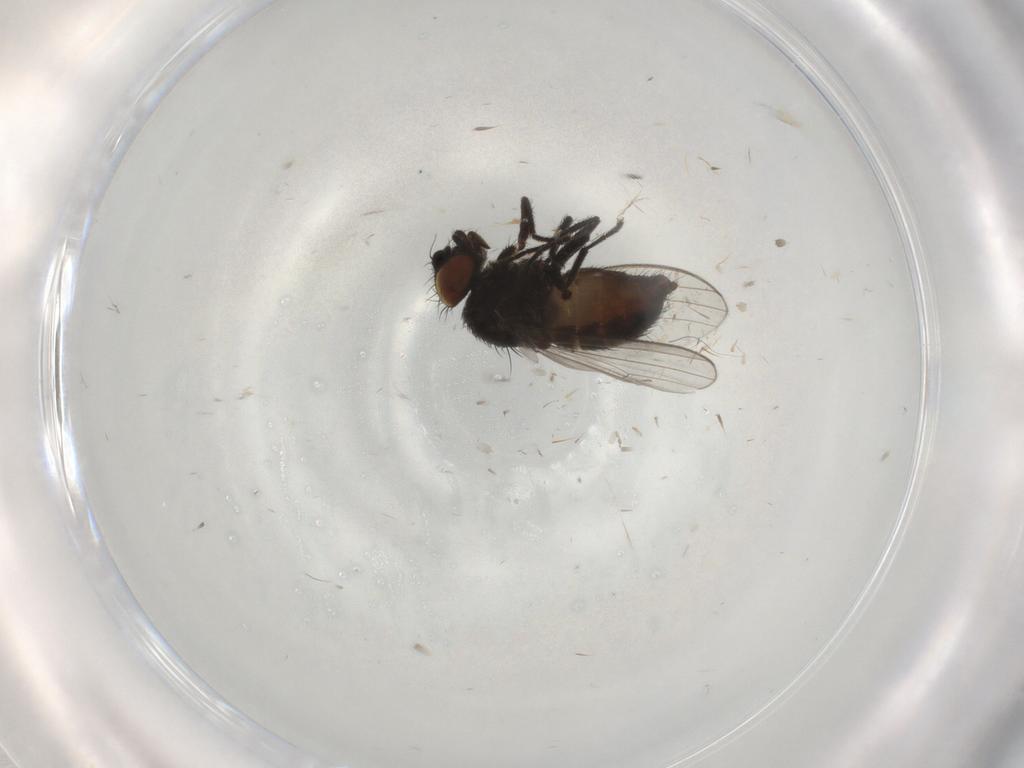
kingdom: Animalia
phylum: Arthropoda
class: Insecta
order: Diptera
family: Milichiidae
